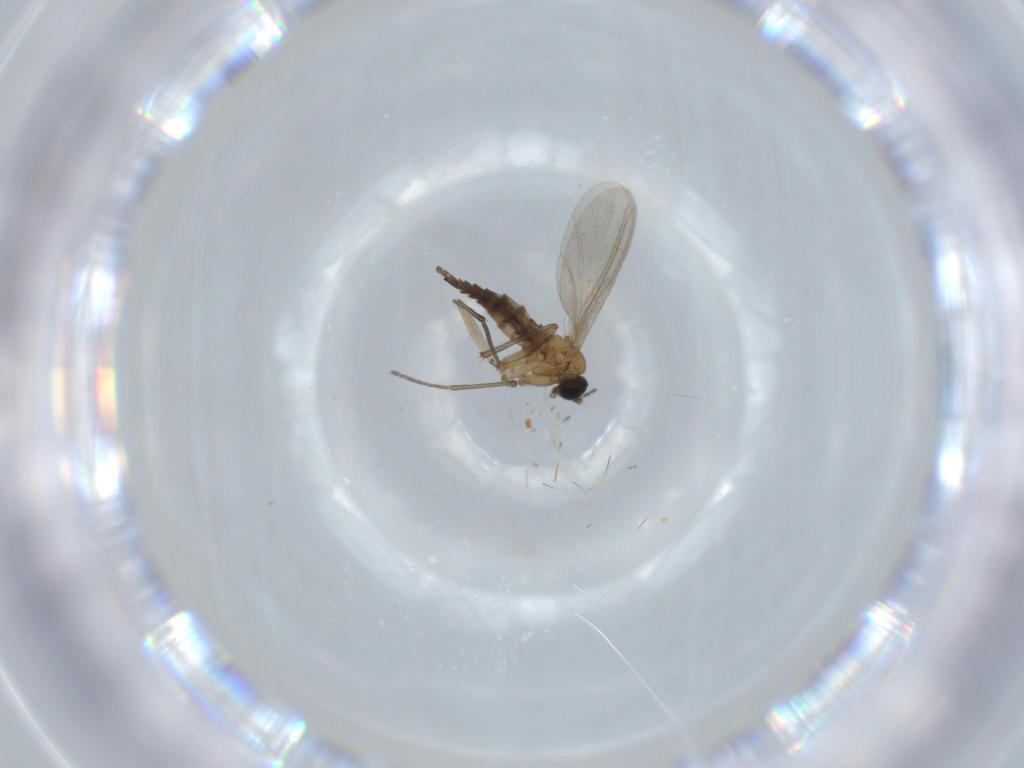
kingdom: Animalia
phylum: Arthropoda
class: Insecta
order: Diptera
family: Sciaridae
